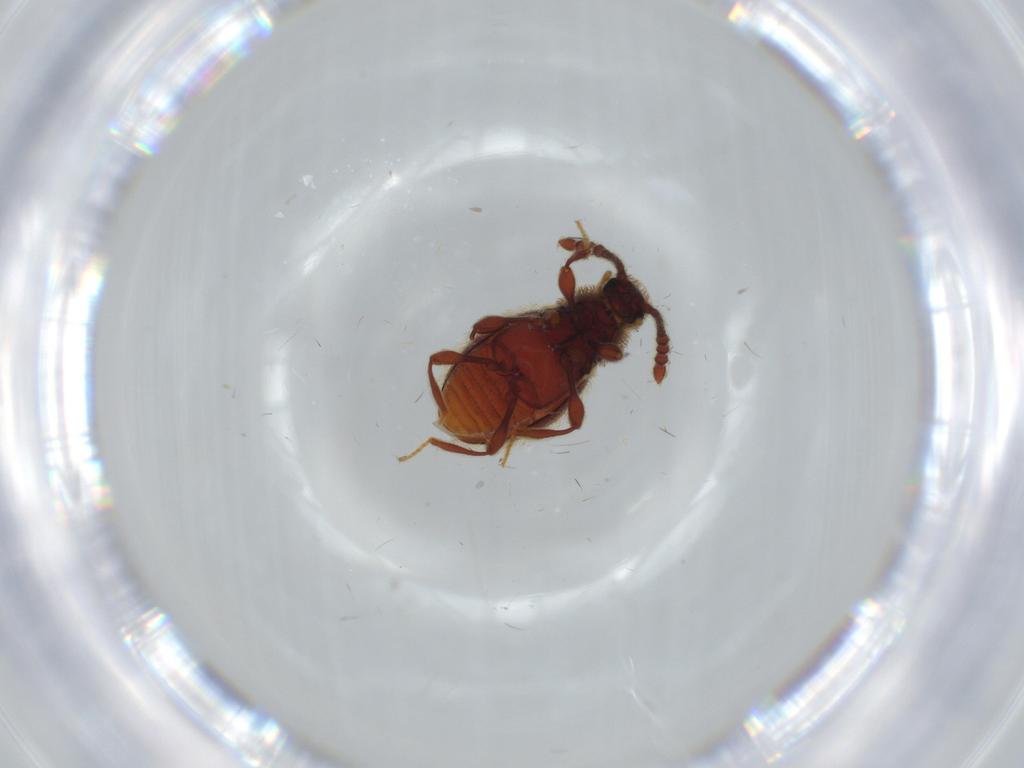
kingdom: Animalia
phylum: Arthropoda
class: Insecta
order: Coleoptera
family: Staphylinidae
